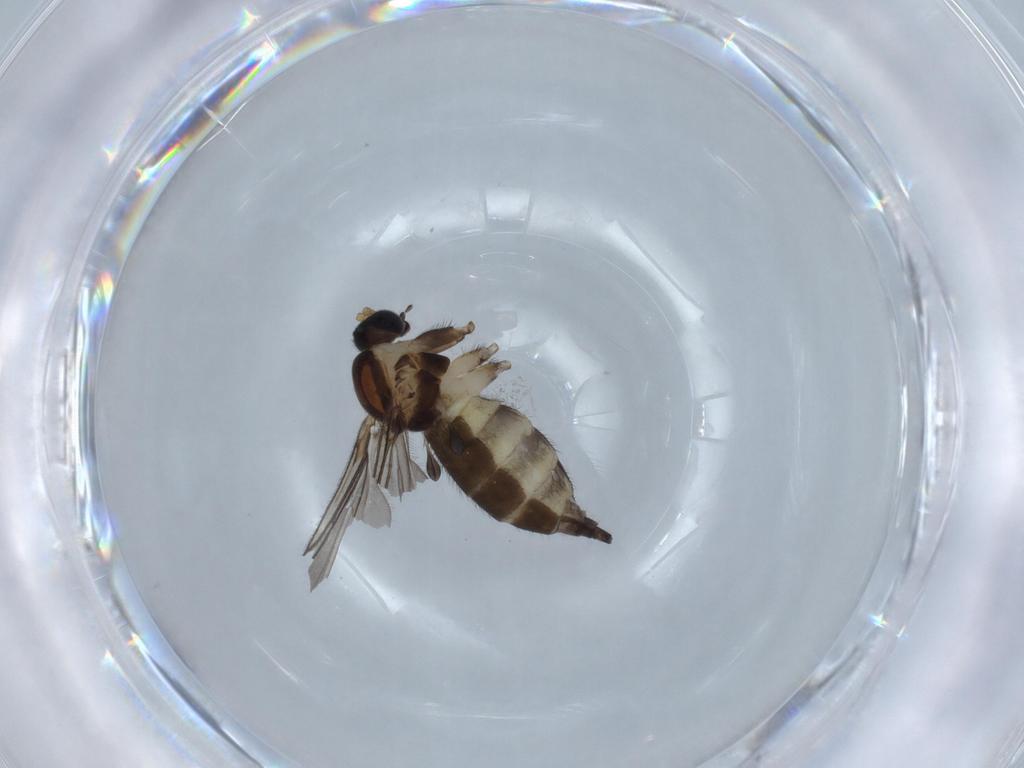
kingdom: Animalia
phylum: Arthropoda
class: Insecta
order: Diptera
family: Sciaridae
